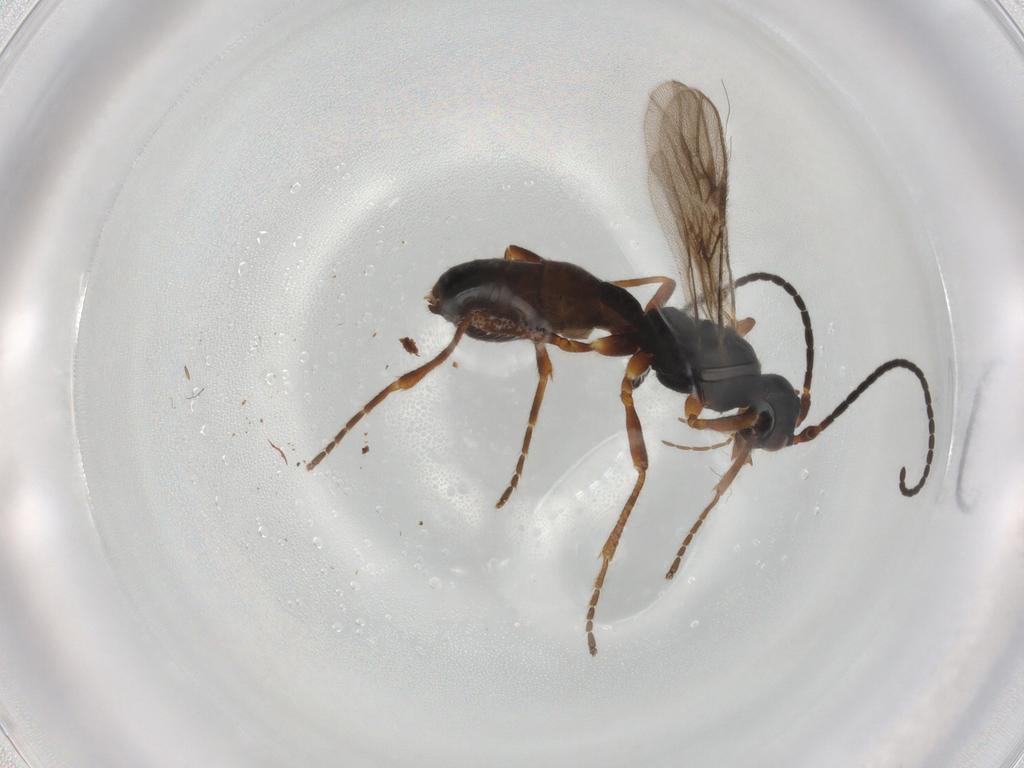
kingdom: Animalia
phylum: Arthropoda
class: Insecta
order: Hymenoptera
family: Braconidae
